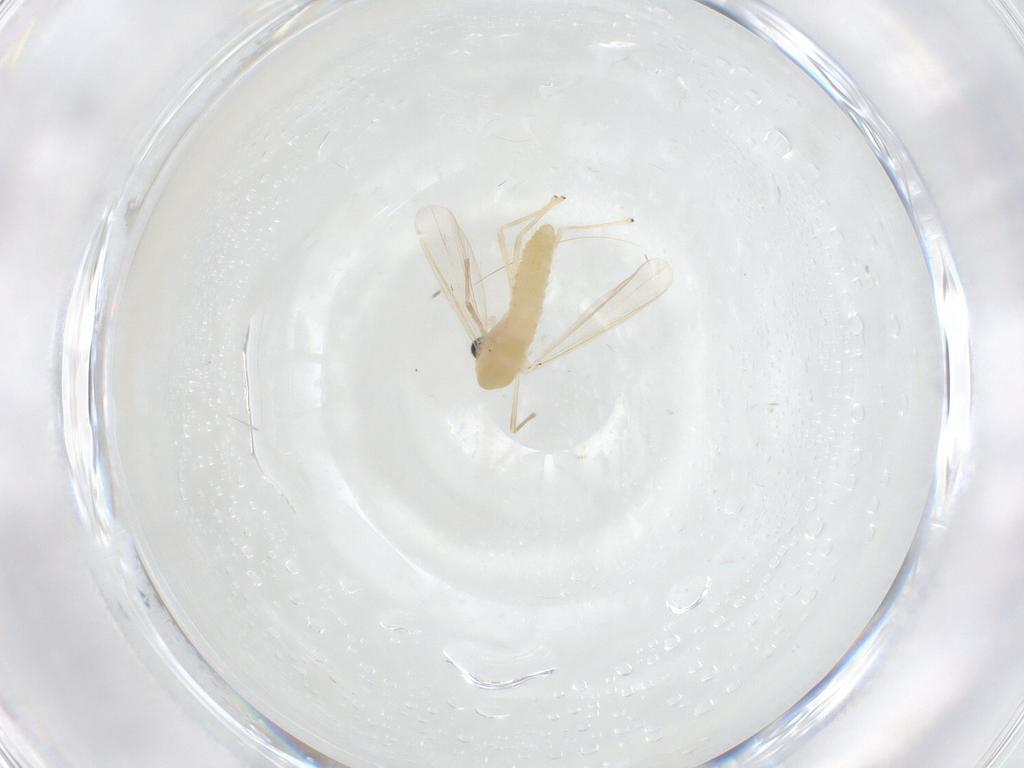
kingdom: Animalia
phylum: Arthropoda
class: Insecta
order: Diptera
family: Chironomidae
